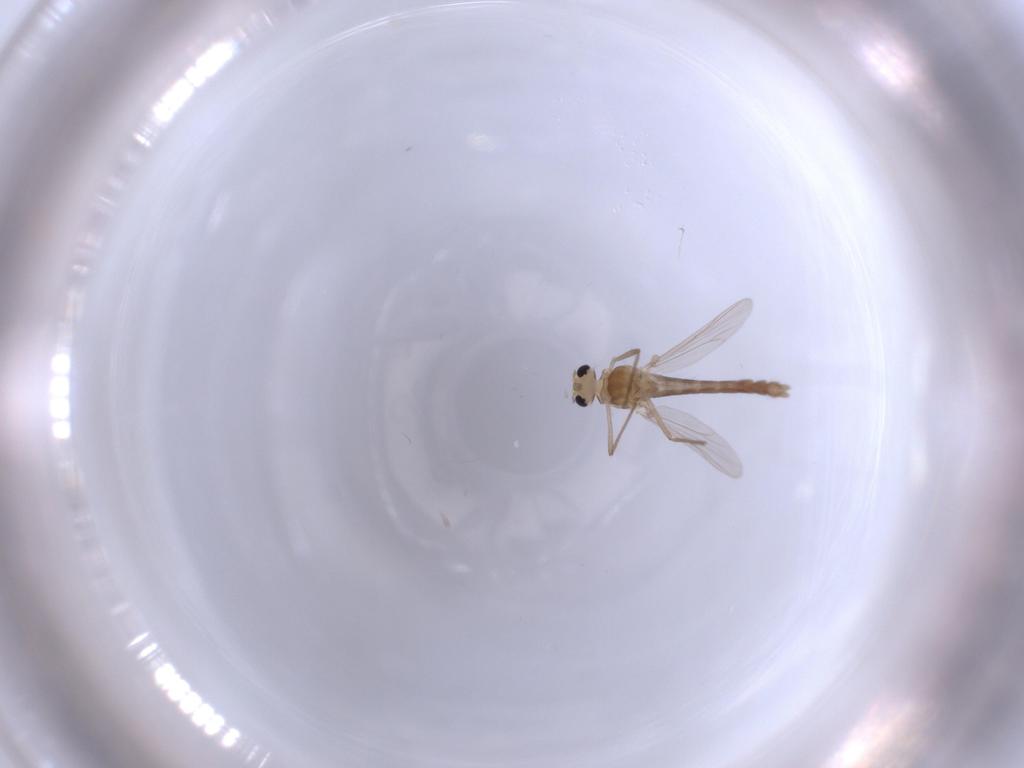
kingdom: Animalia
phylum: Arthropoda
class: Insecta
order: Diptera
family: Chironomidae
